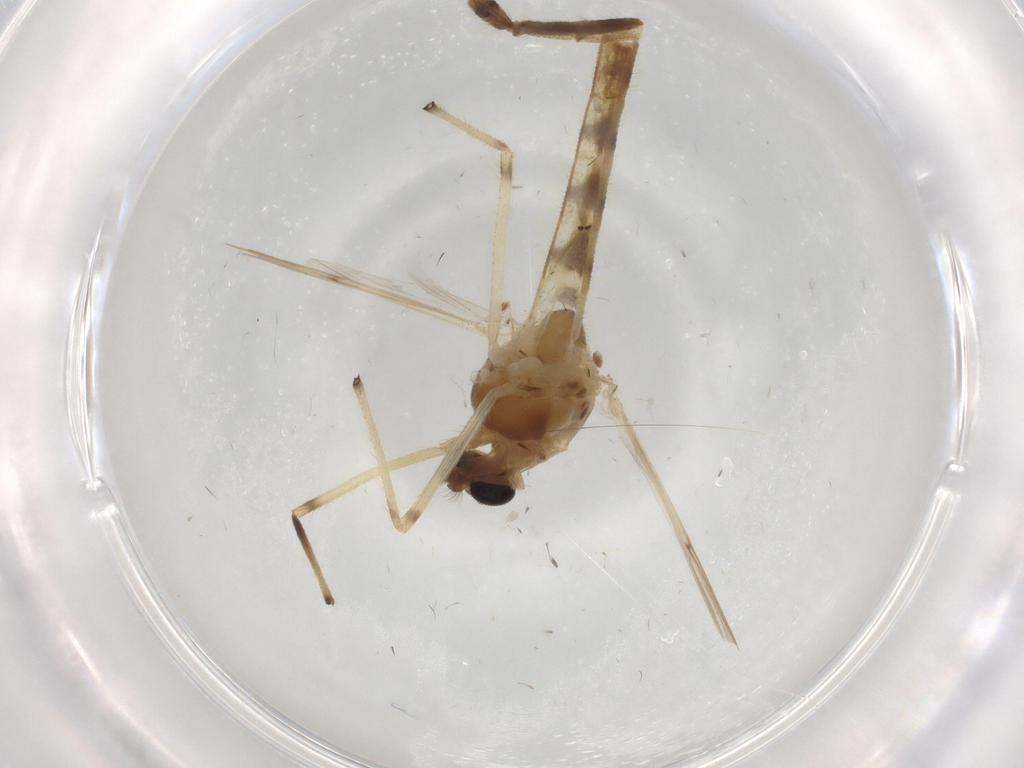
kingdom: Animalia
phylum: Arthropoda
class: Insecta
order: Diptera
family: Chironomidae
